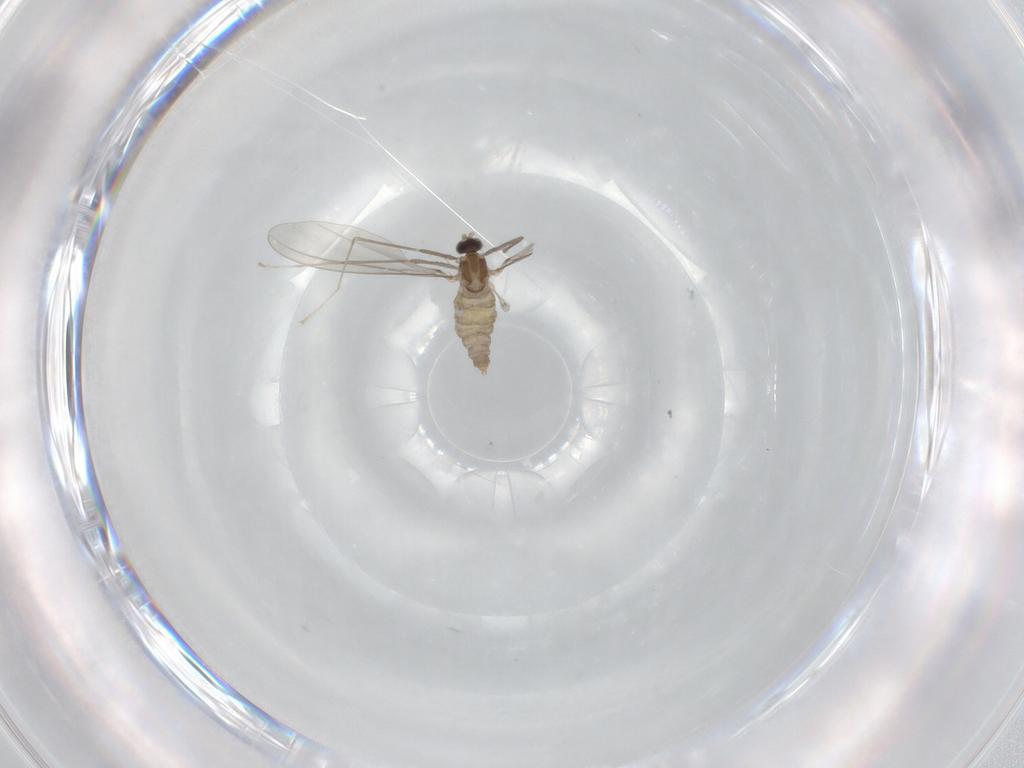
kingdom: Animalia
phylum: Arthropoda
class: Insecta
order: Diptera
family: Cecidomyiidae
